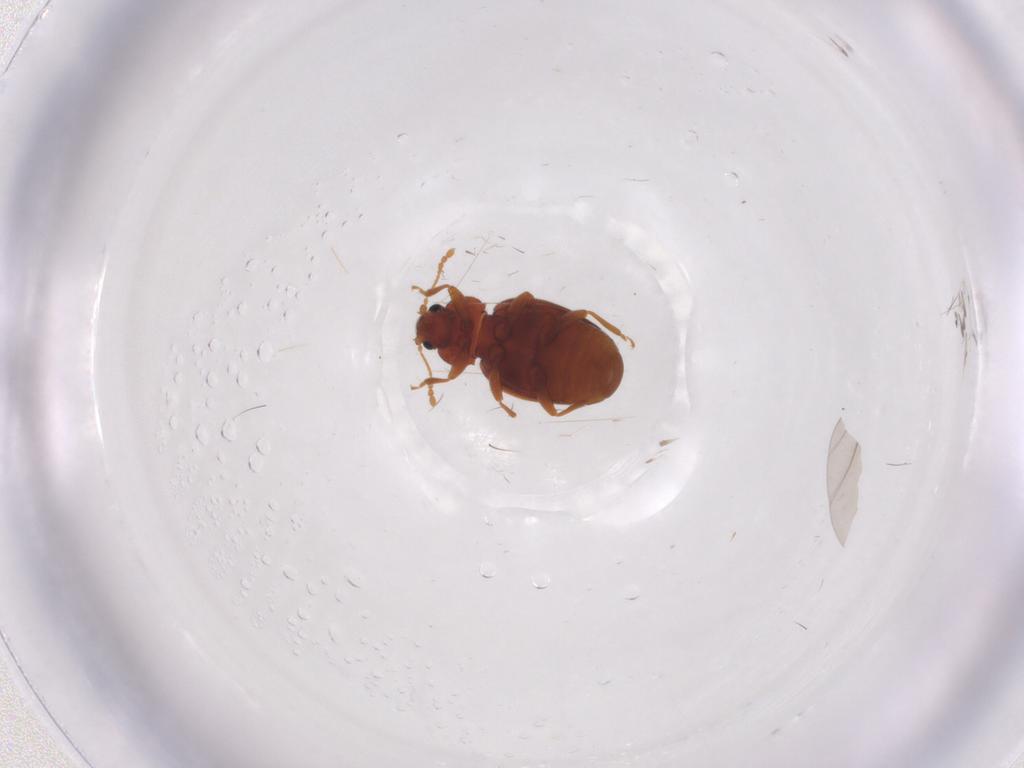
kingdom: Animalia
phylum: Arthropoda
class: Insecta
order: Coleoptera
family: Latridiidae
